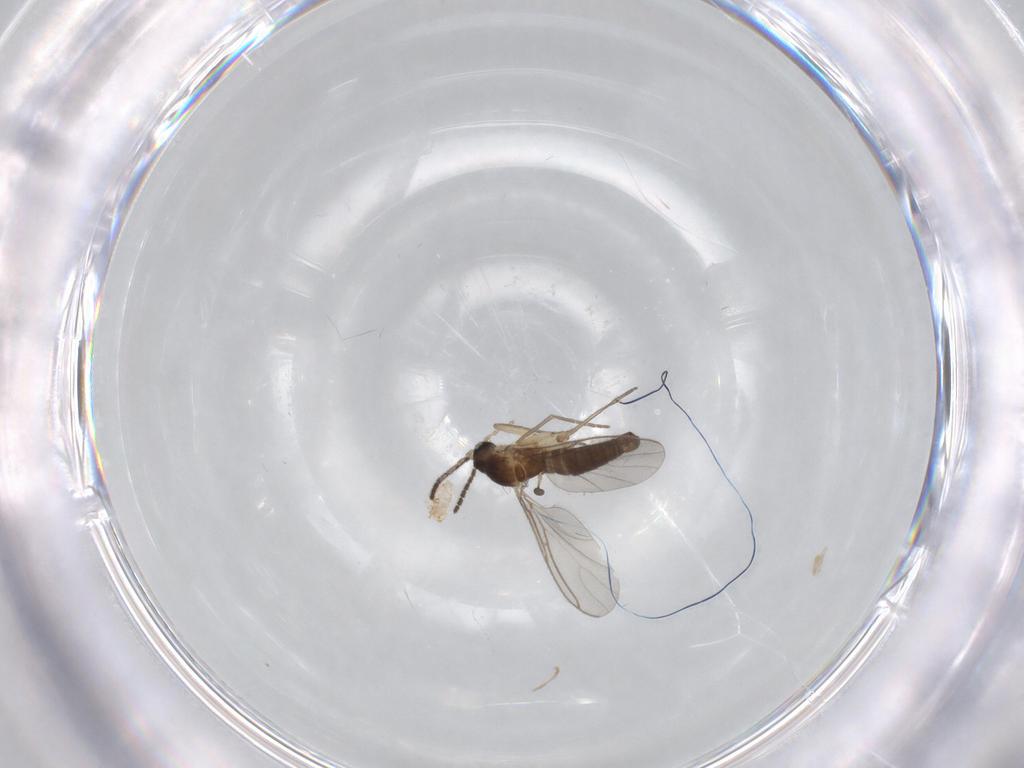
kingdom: Animalia
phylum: Arthropoda
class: Insecta
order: Diptera
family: Cecidomyiidae
